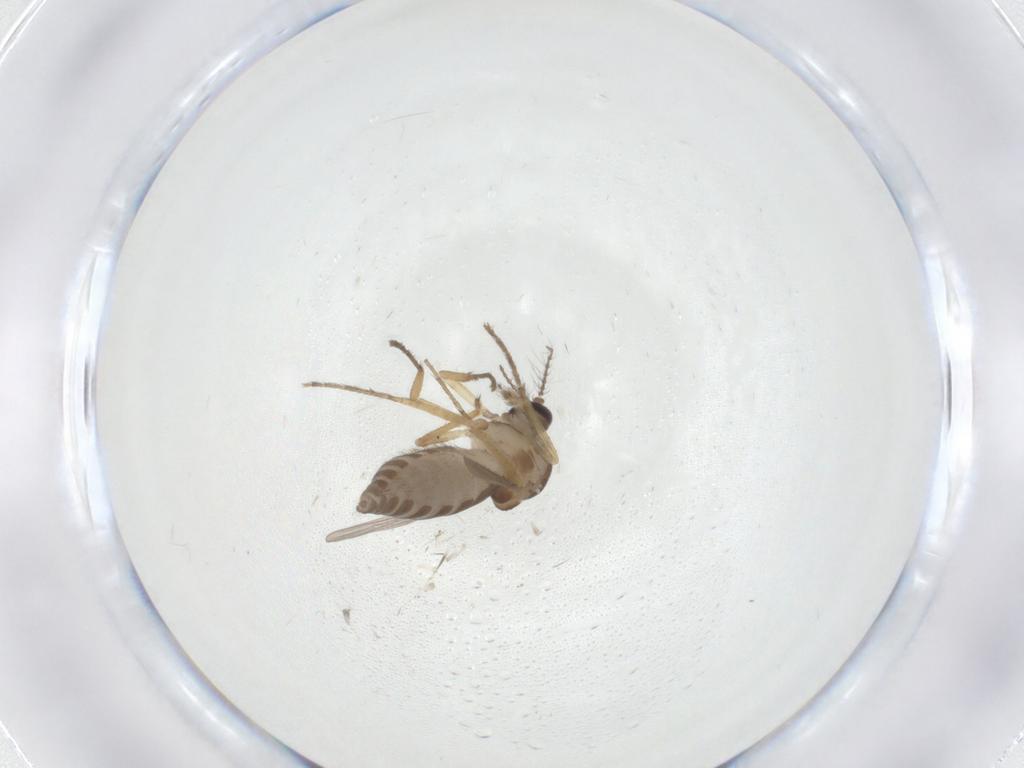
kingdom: Animalia
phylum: Arthropoda
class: Insecta
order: Diptera
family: Ceratopogonidae
